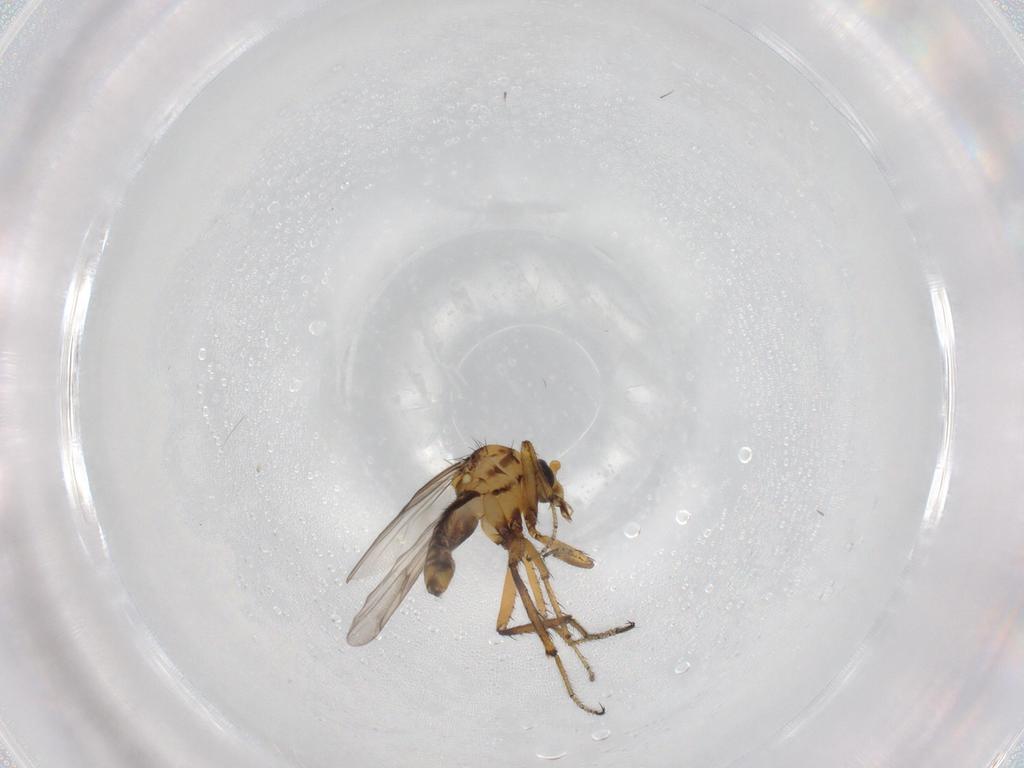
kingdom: Animalia
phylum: Arthropoda
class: Insecta
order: Diptera
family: Ceratopogonidae
